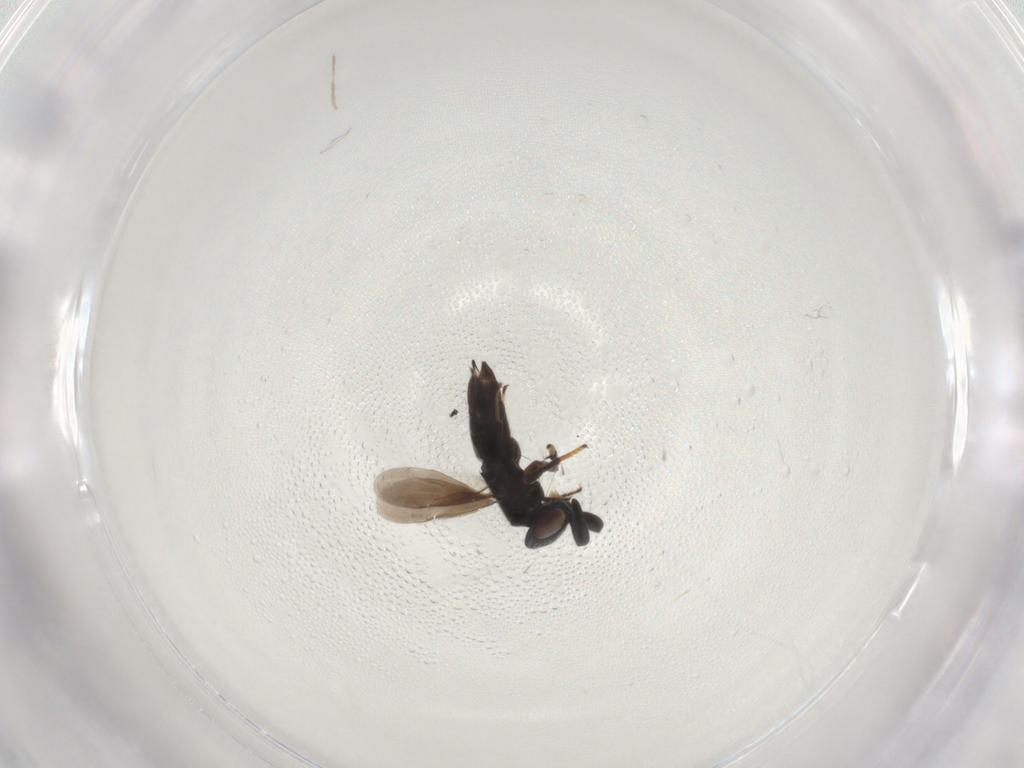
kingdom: Animalia
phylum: Arthropoda
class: Insecta
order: Hymenoptera
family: Encyrtidae
